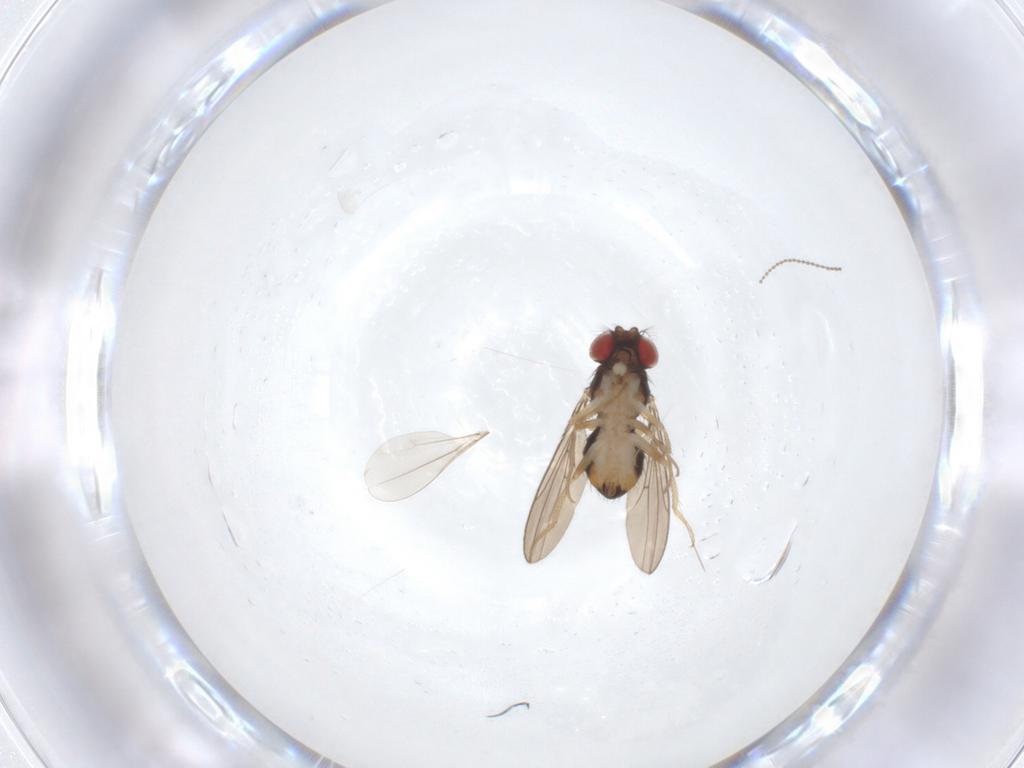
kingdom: Animalia
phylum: Arthropoda
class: Insecta
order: Diptera
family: Drosophilidae
